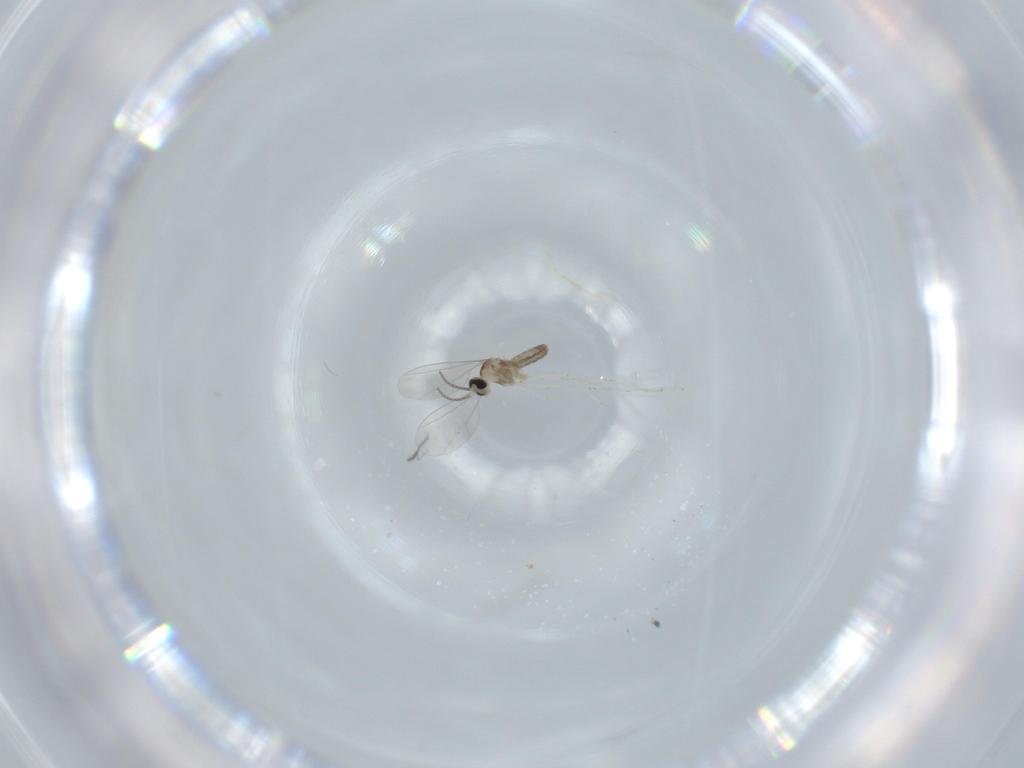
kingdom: Animalia
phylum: Arthropoda
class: Insecta
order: Diptera
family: Cecidomyiidae
